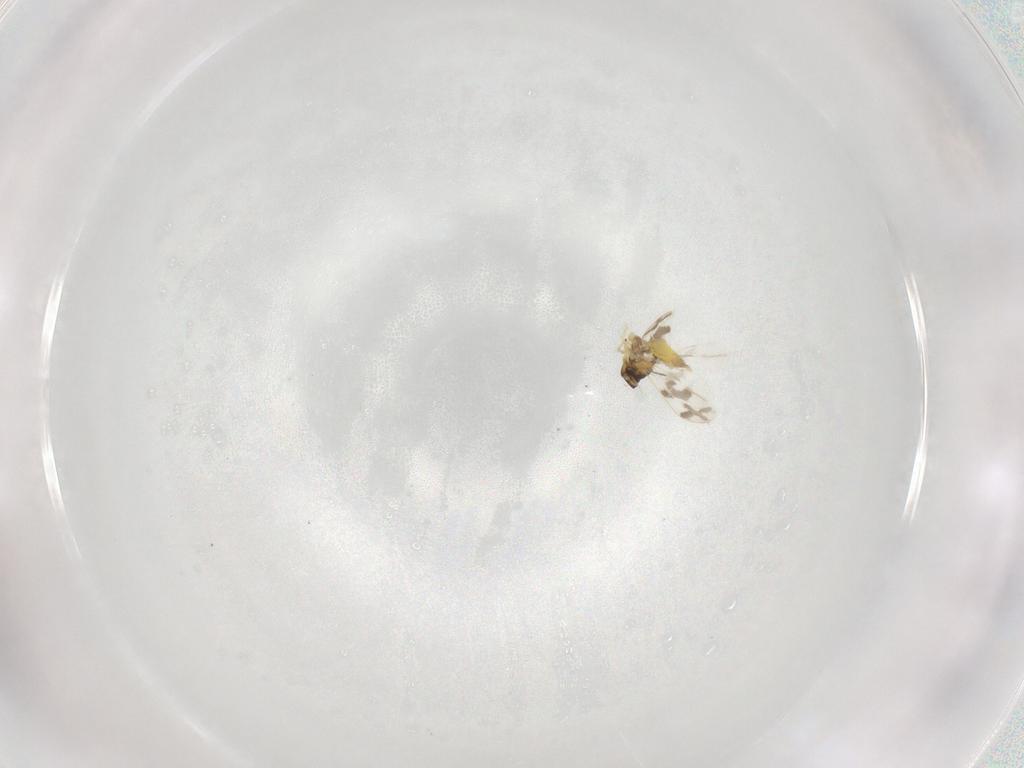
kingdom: Animalia
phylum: Arthropoda
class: Insecta
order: Hemiptera
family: Aleyrodidae
